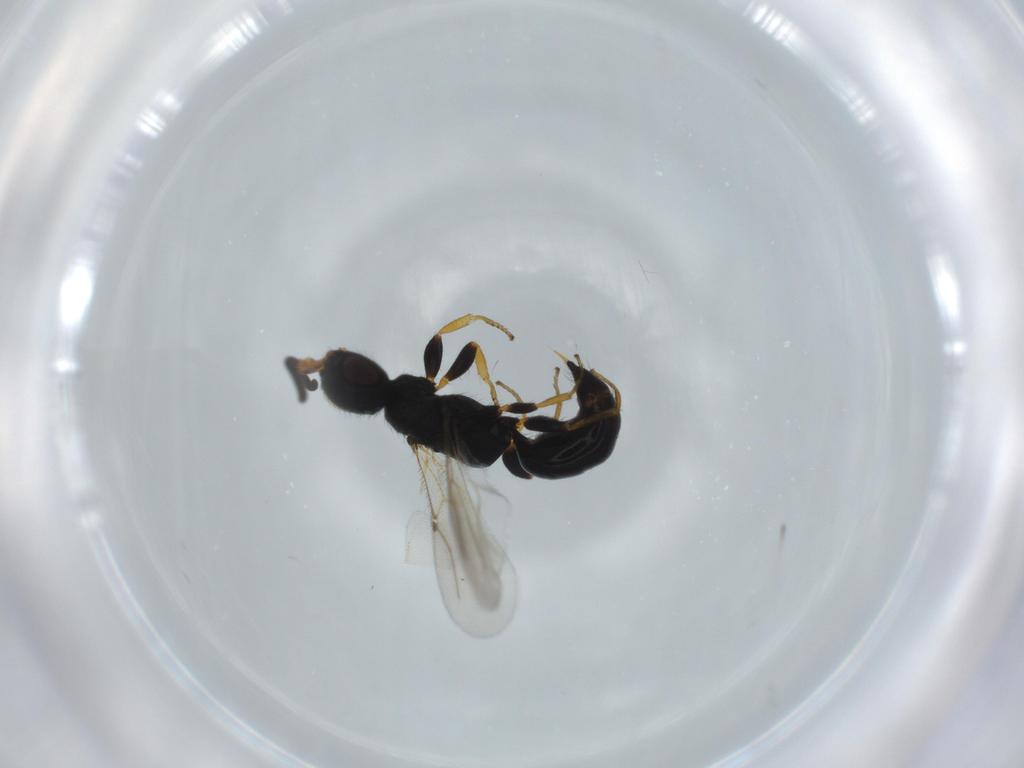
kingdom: Animalia
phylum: Arthropoda
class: Insecta
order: Hymenoptera
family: Bethylidae
